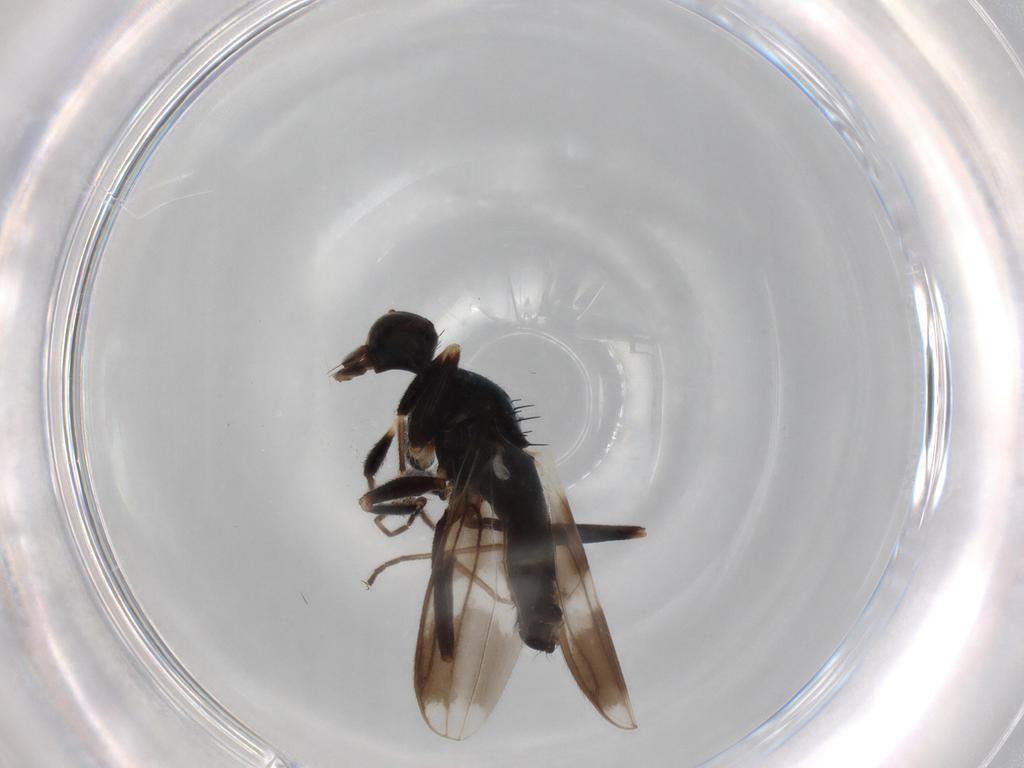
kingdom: Animalia
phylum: Arthropoda
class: Insecta
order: Diptera
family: Hybotidae
